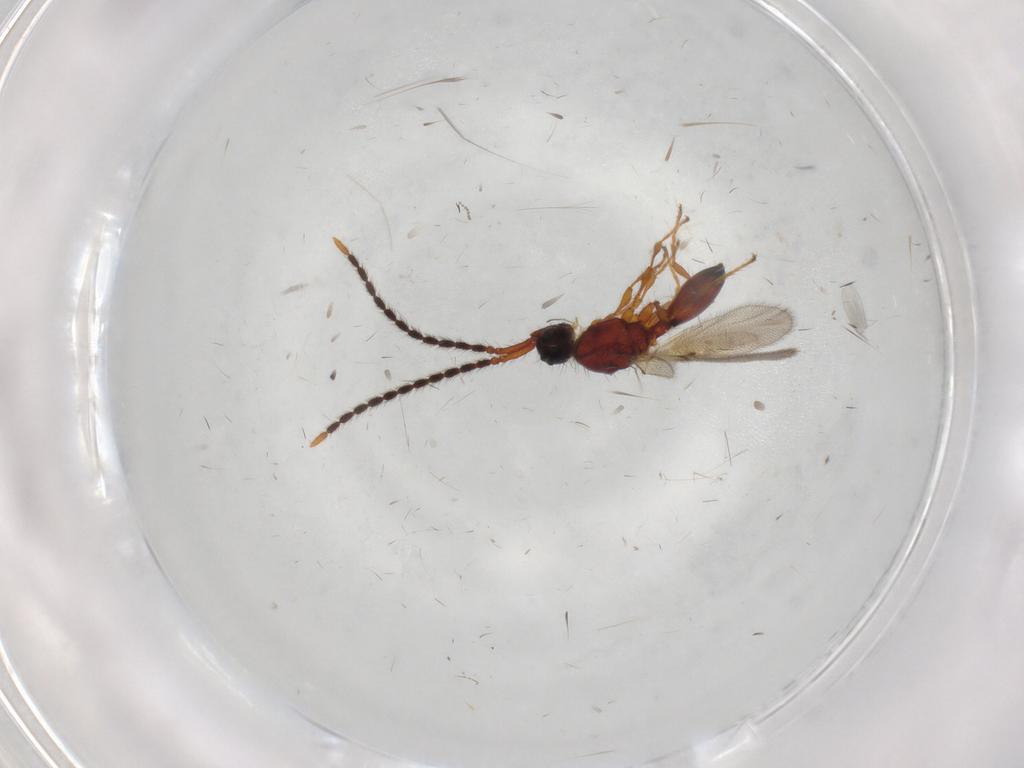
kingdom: Animalia
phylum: Arthropoda
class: Insecta
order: Hymenoptera
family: Diapriidae
